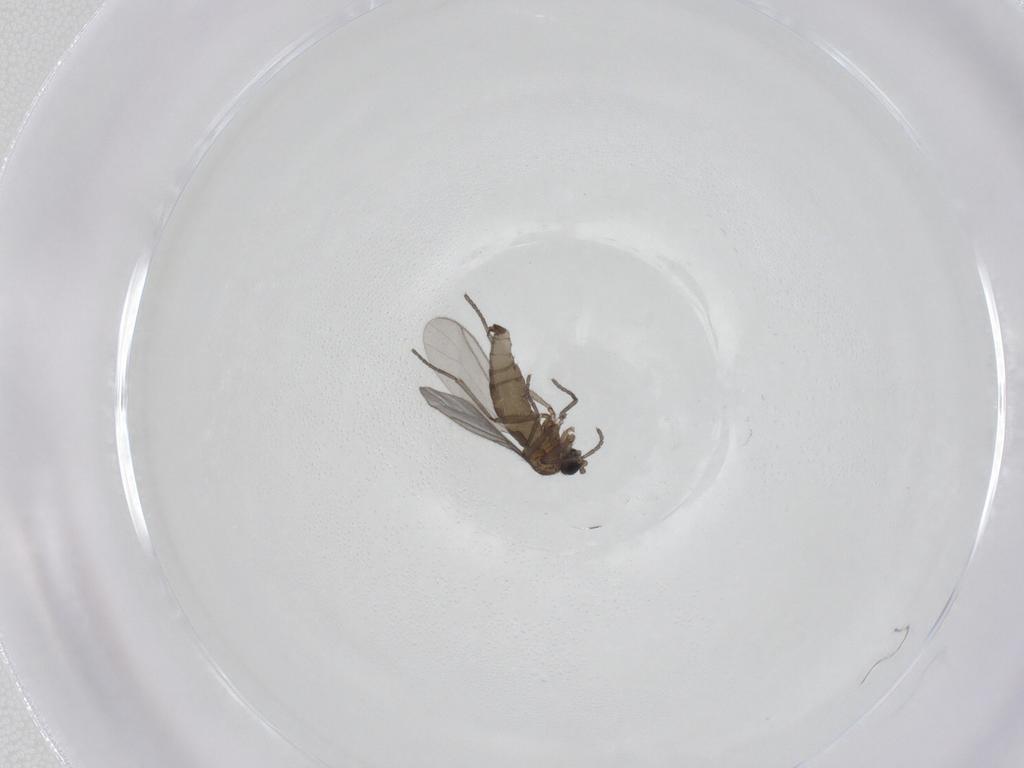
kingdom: Animalia
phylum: Arthropoda
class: Insecta
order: Diptera
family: Sciaridae
